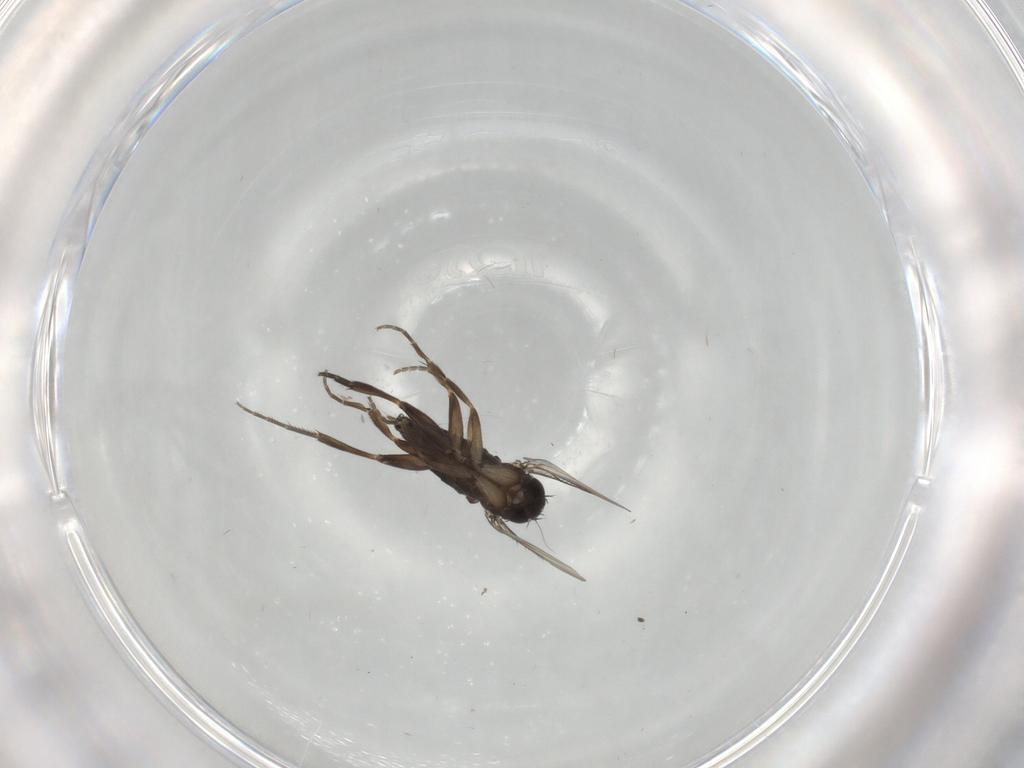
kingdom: Animalia
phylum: Arthropoda
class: Insecta
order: Diptera
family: Phoridae
